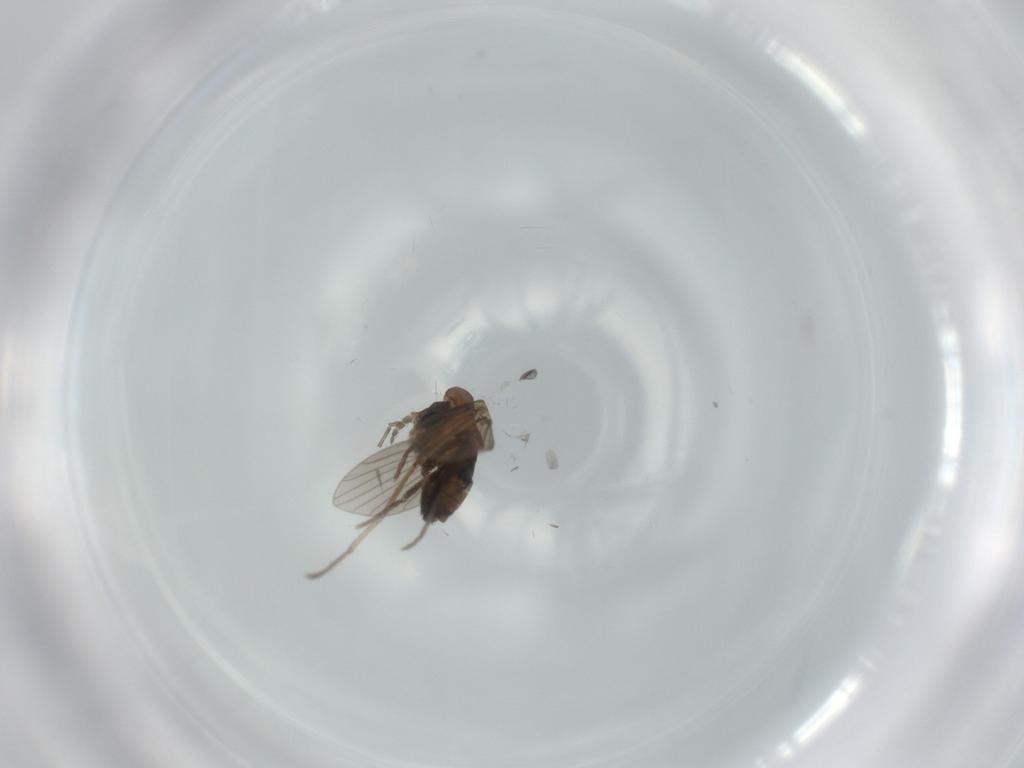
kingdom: Animalia
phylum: Arthropoda
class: Insecta
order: Diptera
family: Psychodidae
